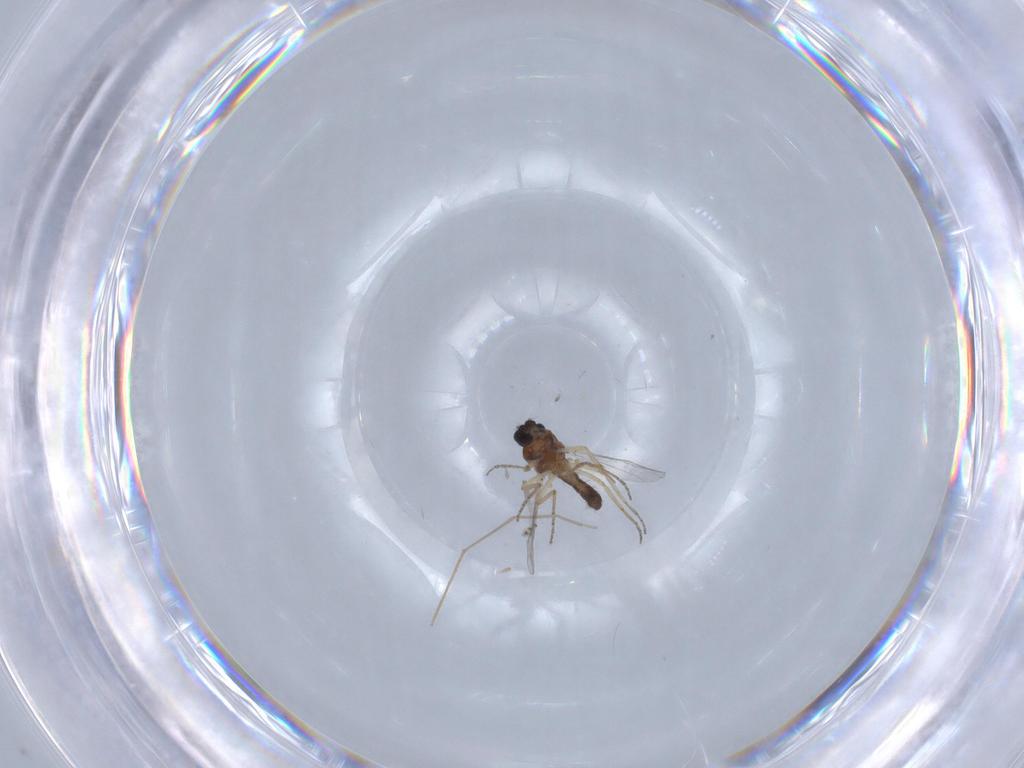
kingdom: Animalia
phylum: Arthropoda
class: Insecta
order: Diptera
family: Ceratopogonidae
